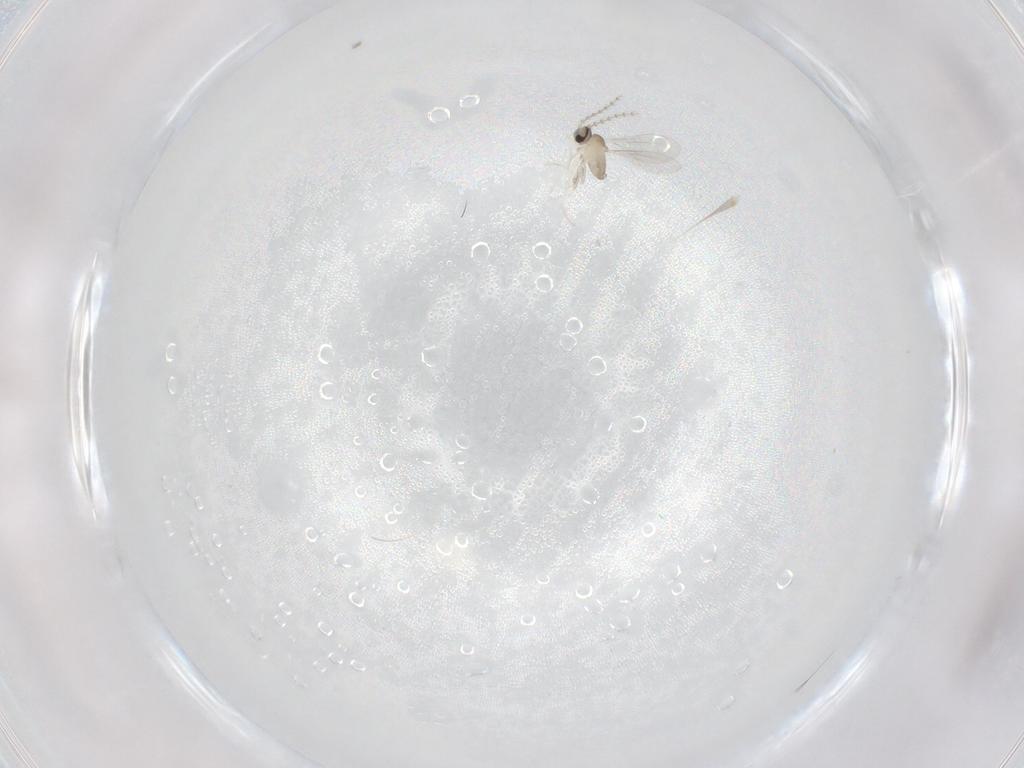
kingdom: Animalia
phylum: Arthropoda
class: Insecta
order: Diptera
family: Cecidomyiidae
